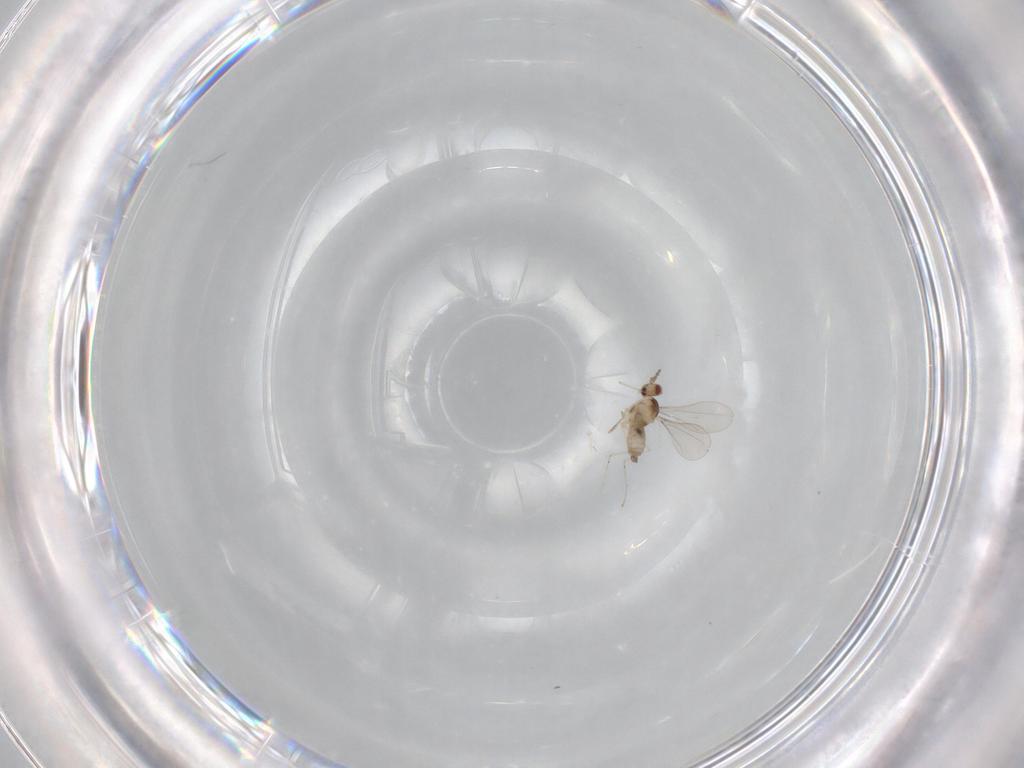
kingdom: Animalia
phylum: Arthropoda
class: Insecta
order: Diptera
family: Cecidomyiidae
